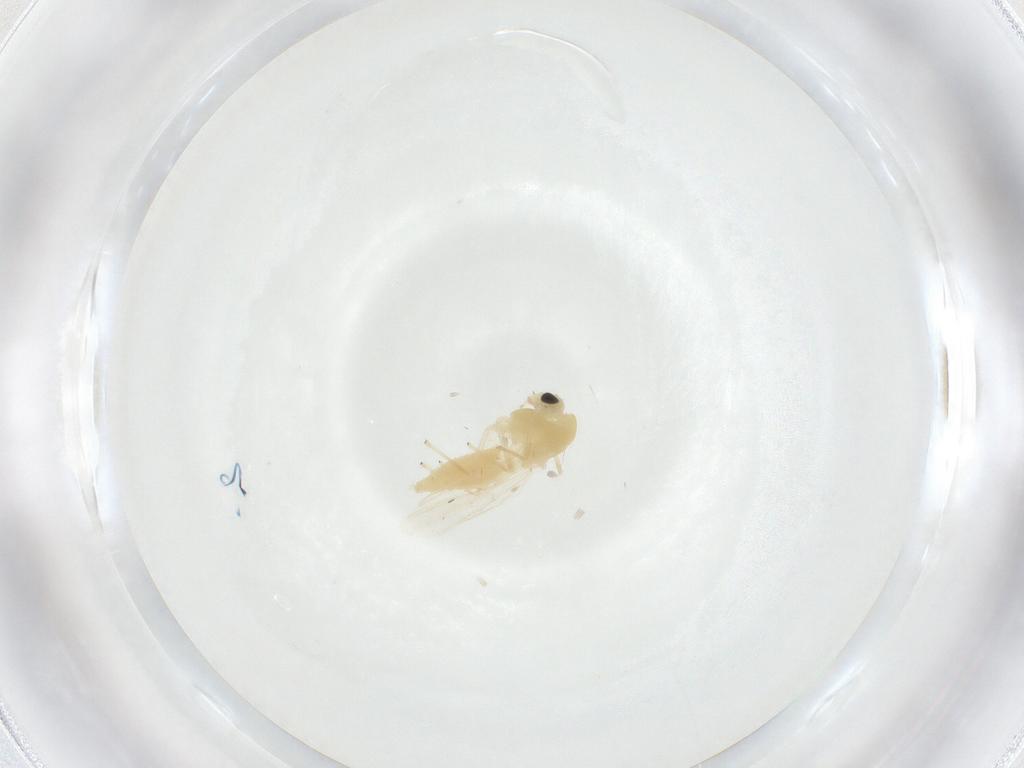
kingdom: Animalia
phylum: Arthropoda
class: Insecta
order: Diptera
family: Chironomidae
